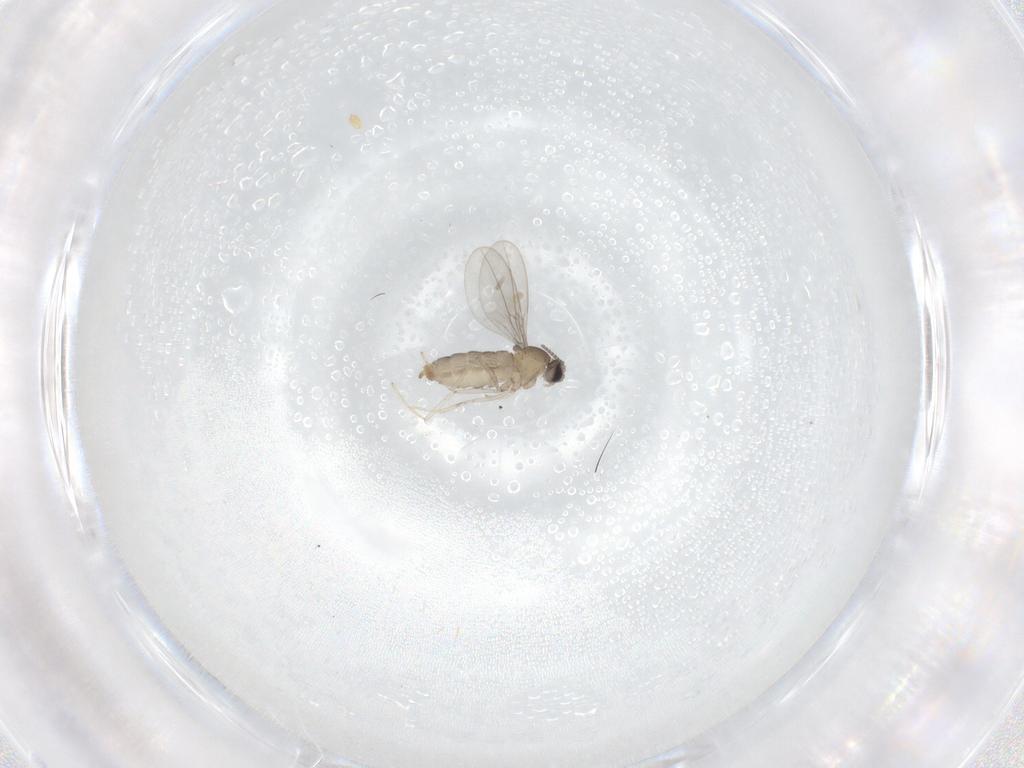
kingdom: Animalia
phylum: Arthropoda
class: Insecta
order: Diptera
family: Cecidomyiidae
